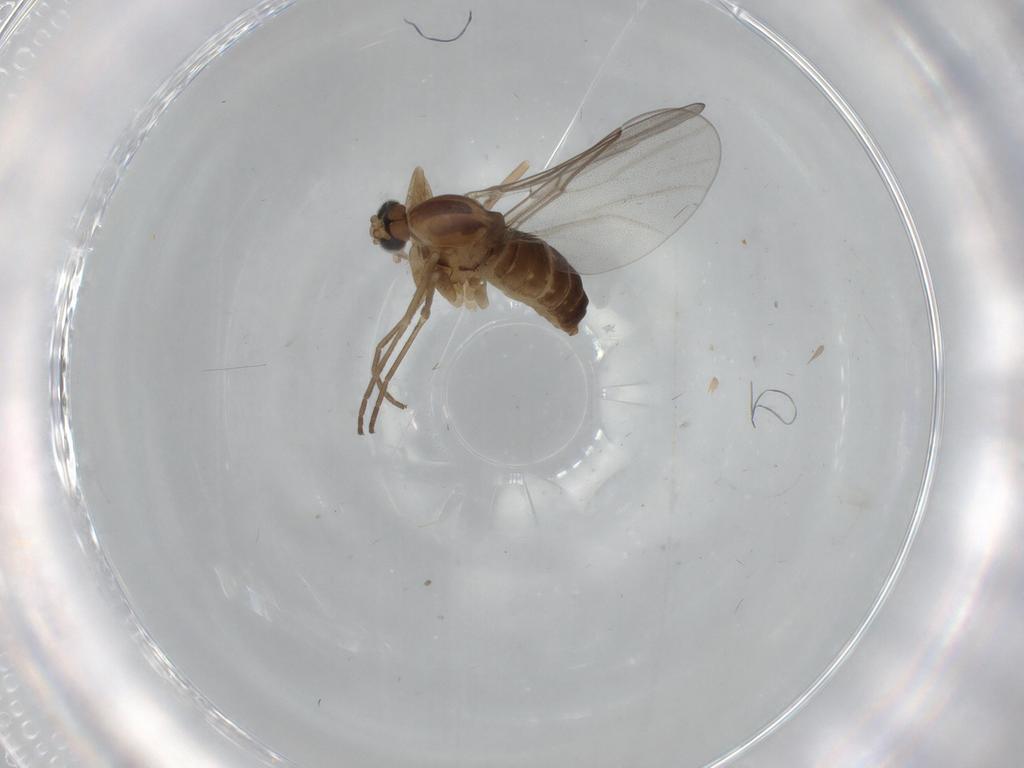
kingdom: Animalia
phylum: Arthropoda
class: Insecta
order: Diptera
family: Cecidomyiidae
